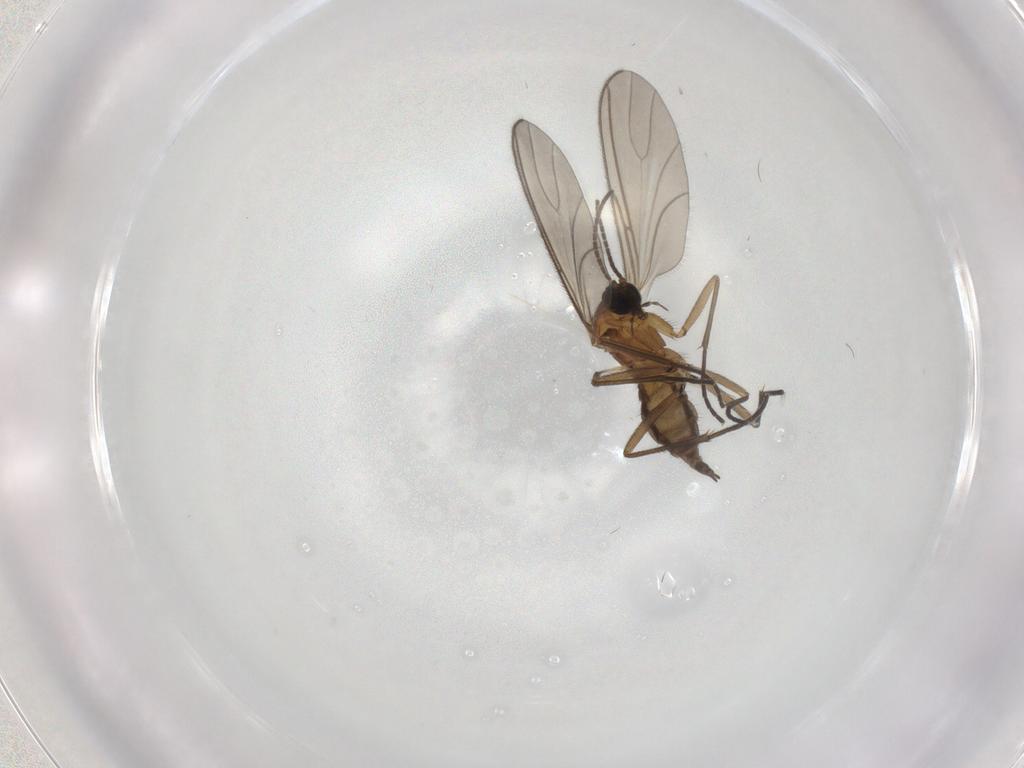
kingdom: Animalia
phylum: Arthropoda
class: Insecta
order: Diptera
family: Sciaridae
